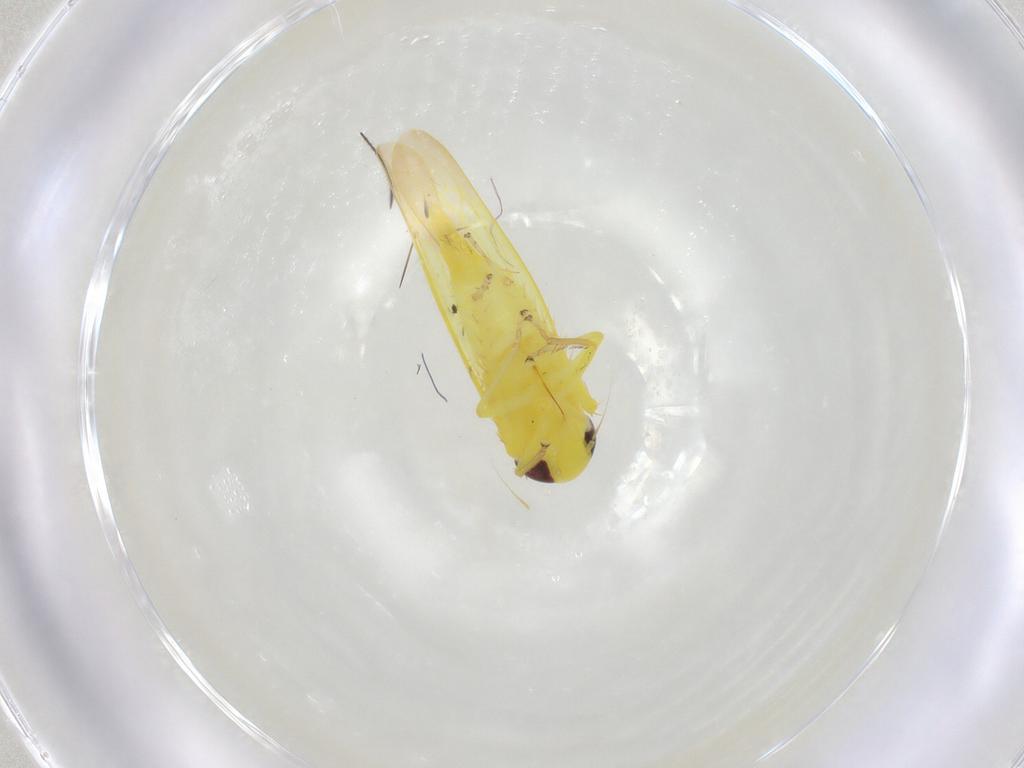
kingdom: Animalia
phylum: Arthropoda
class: Insecta
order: Hemiptera
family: Cicadellidae
